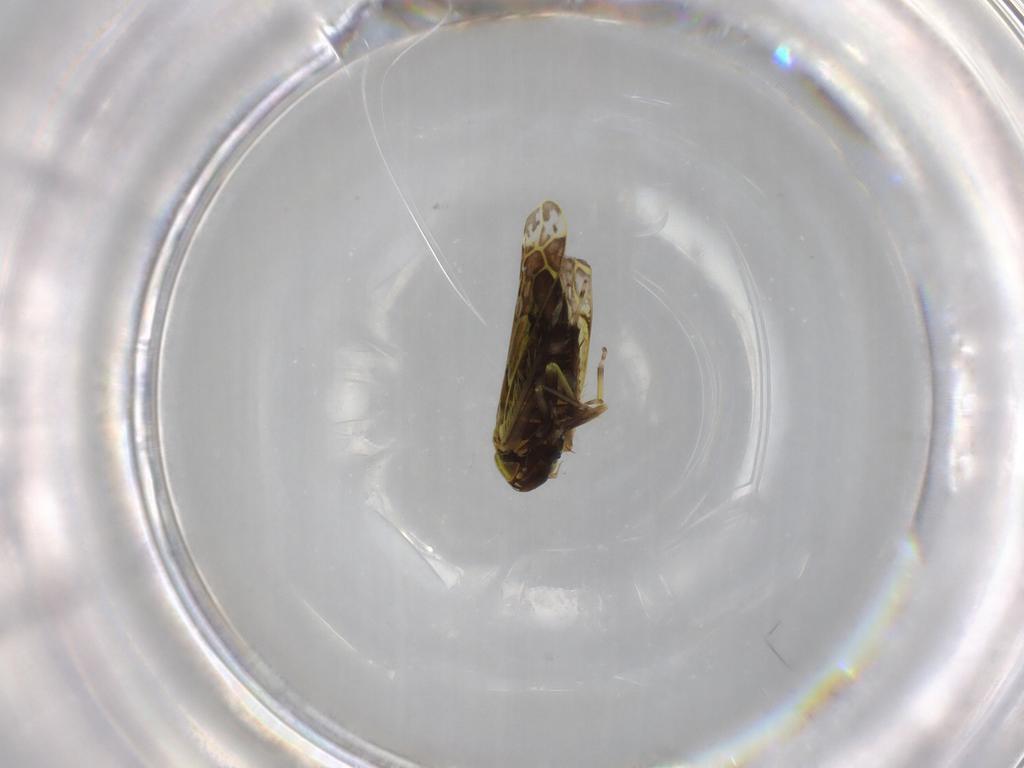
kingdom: Animalia
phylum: Arthropoda
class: Insecta
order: Hemiptera
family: Cicadellidae
